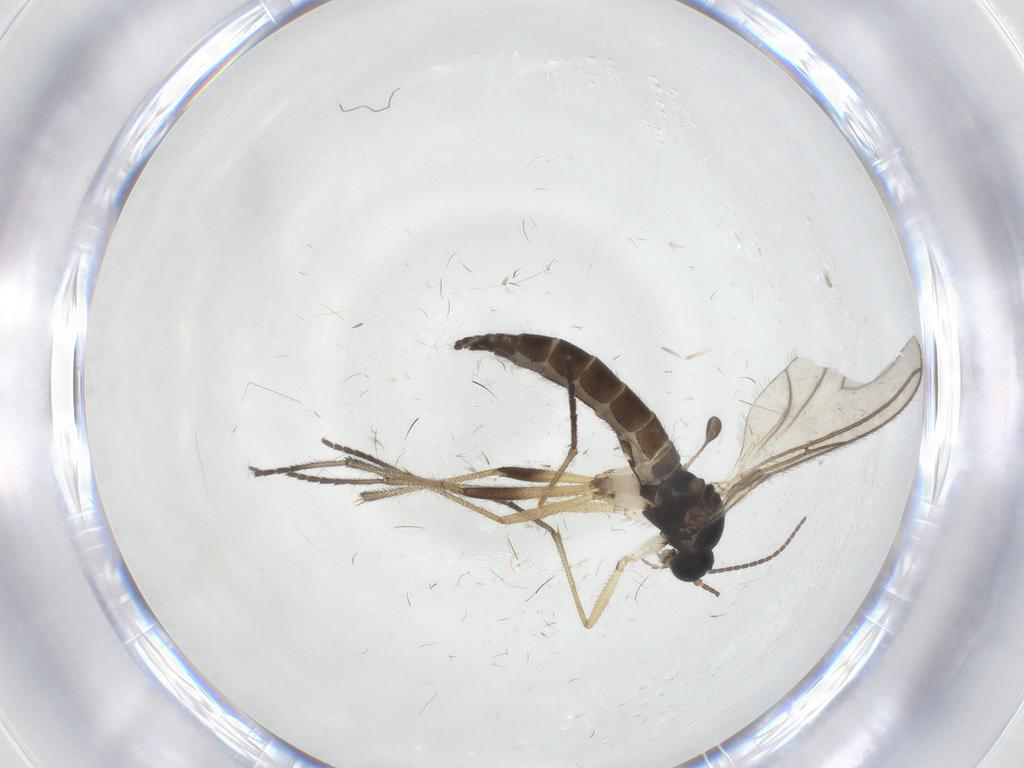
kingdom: Animalia
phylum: Arthropoda
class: Insecta
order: Diptera
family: Sciaridae
